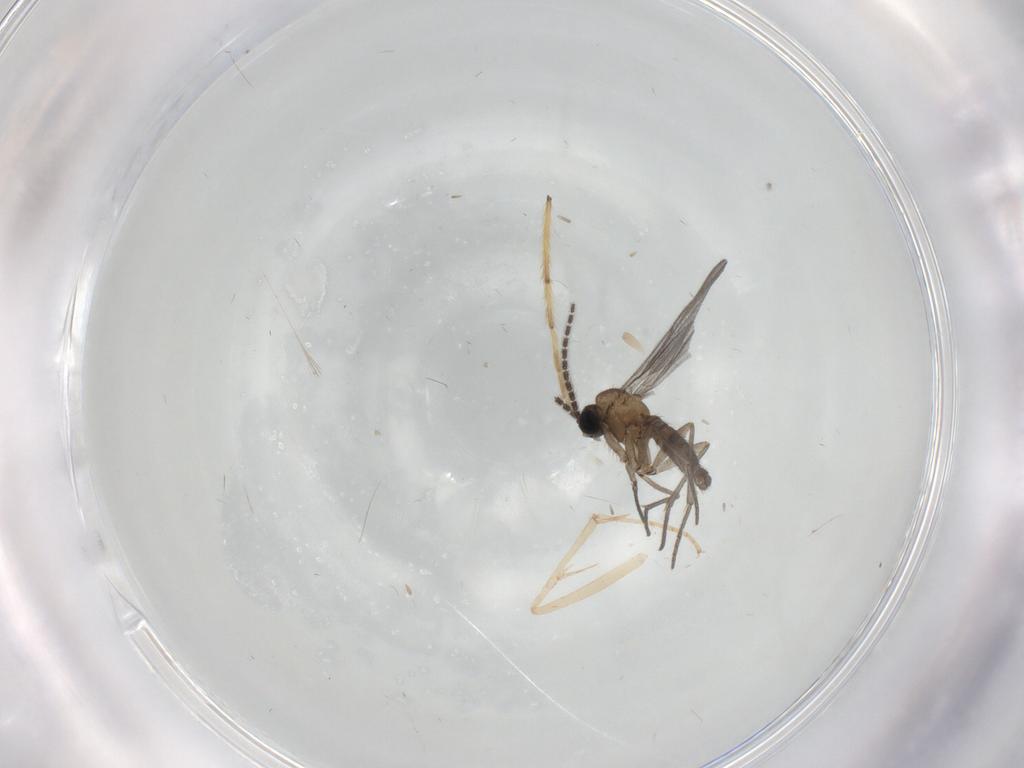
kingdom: Animalia
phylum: Arthropoda
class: Insecta
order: Diptera
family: Sciaridae
